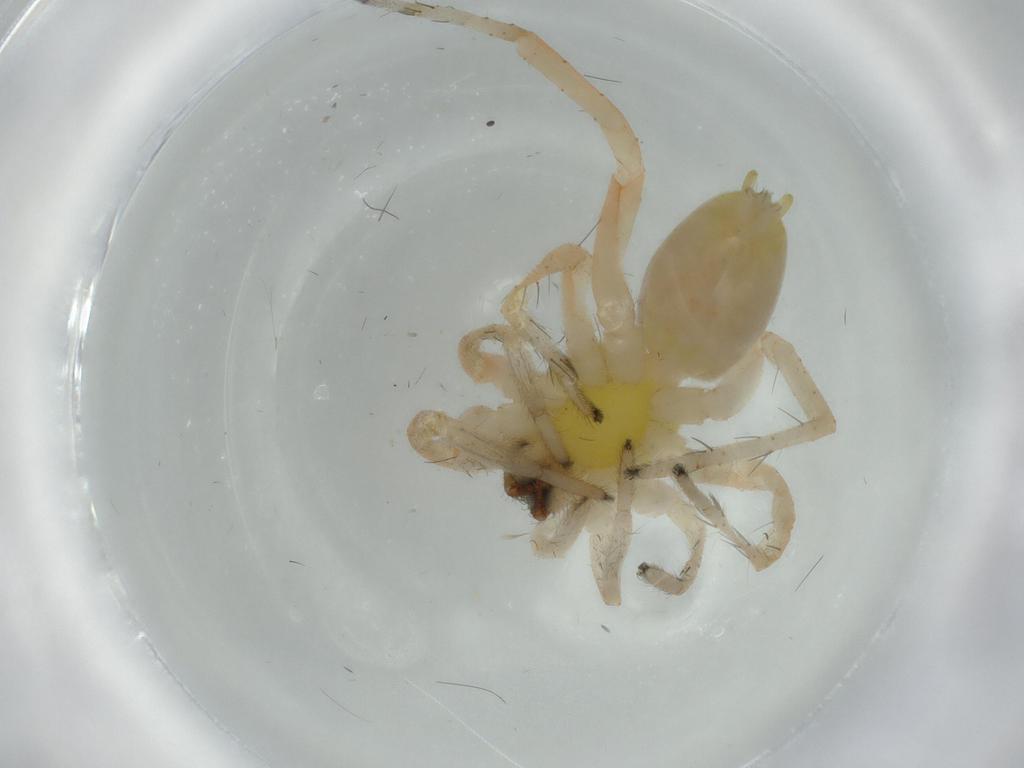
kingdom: Animalia
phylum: Arthropoda
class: Arachnida
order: Araneae
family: Anyphaenidae
